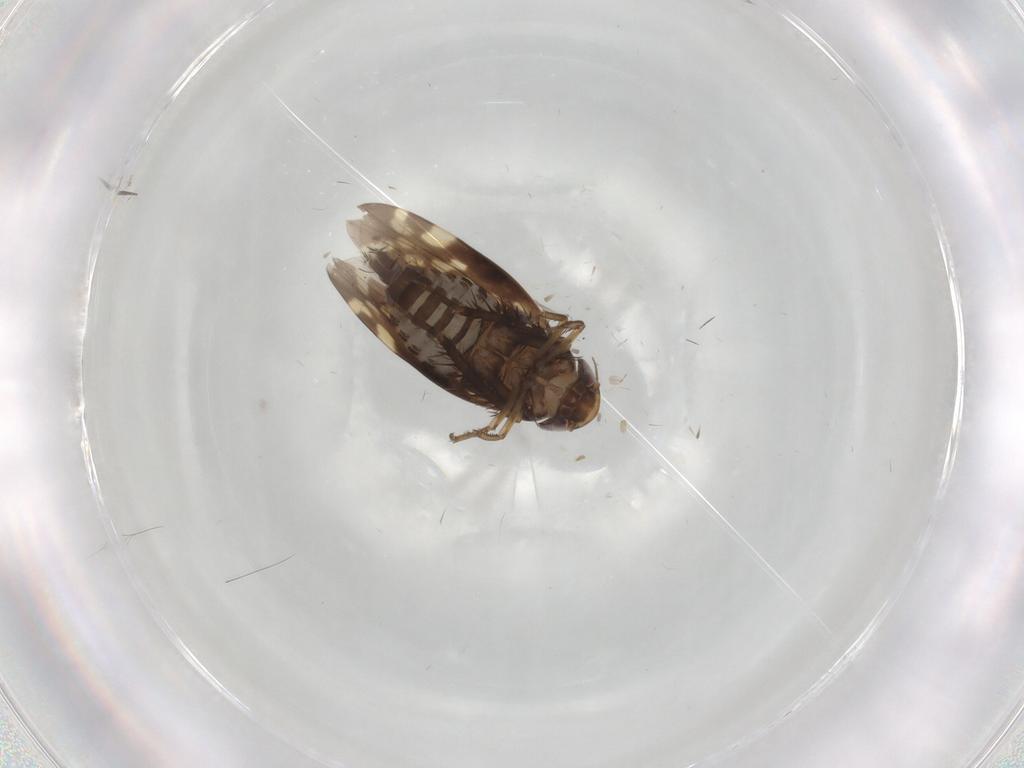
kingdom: Animalia
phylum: Arthropoda
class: Insecta
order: Hemiptera
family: Cicadellidae
